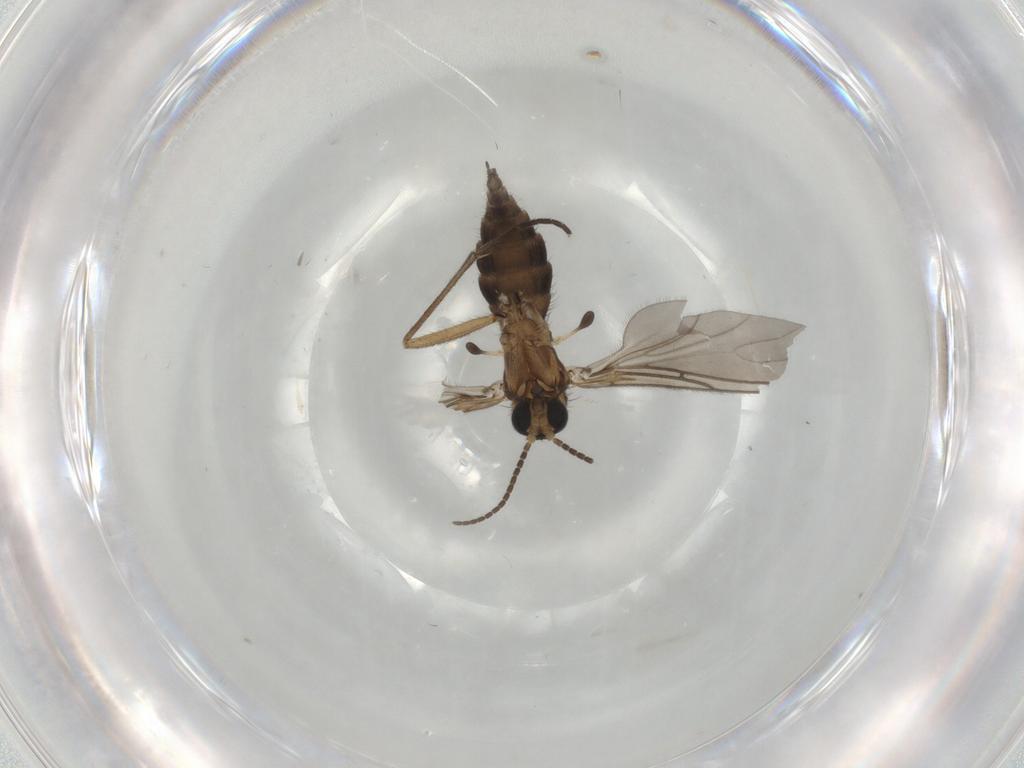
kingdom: Animalia
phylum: Arthropoda
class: Insecta
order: Diptera
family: Sciaridae
